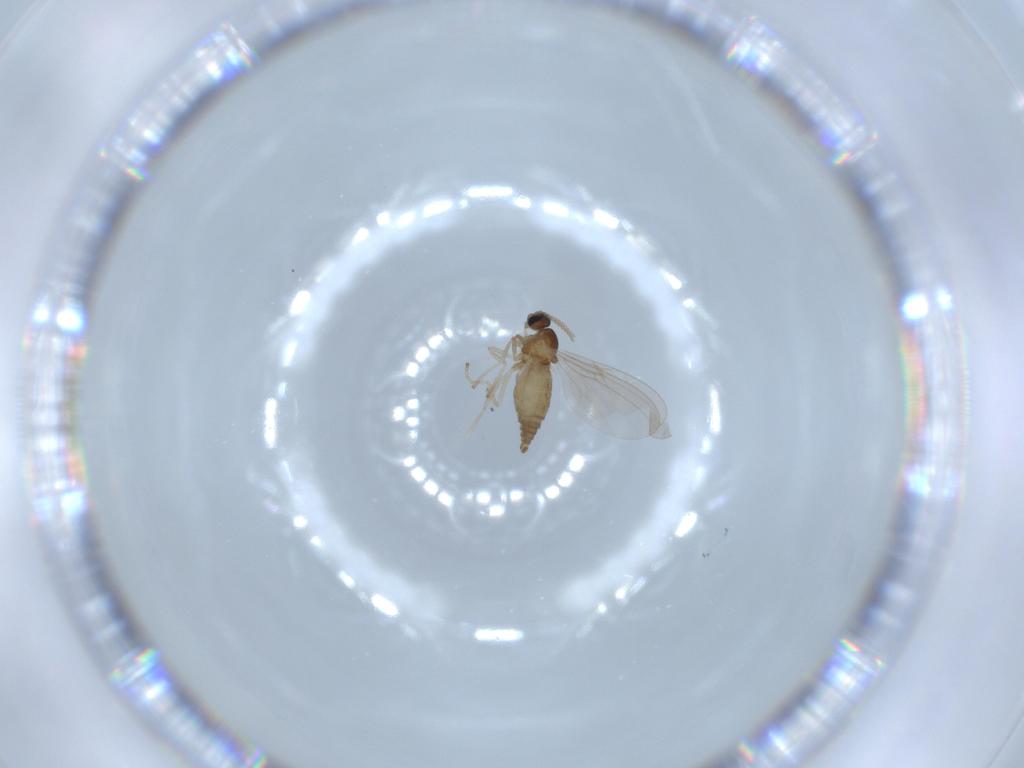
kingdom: Animalia
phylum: Arthropoda
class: Insecta
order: Diptera
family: Cecidomyiidae
